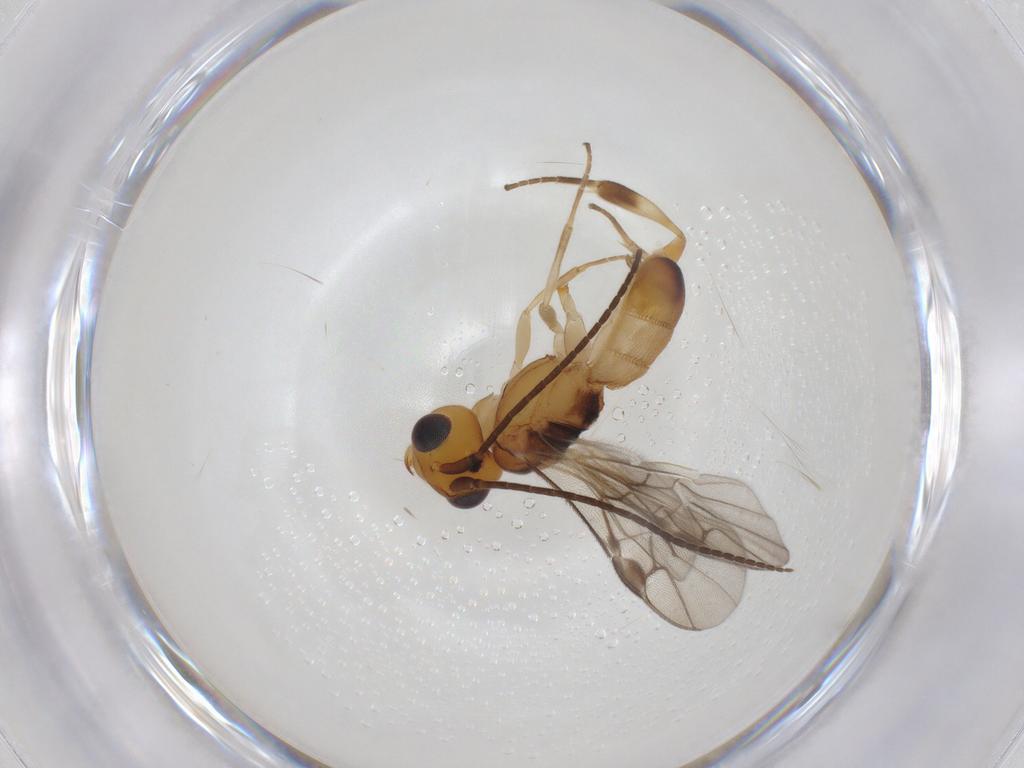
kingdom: Animalia
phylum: Arthropoda
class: Insecta
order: Hymenoptera
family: Braconidae
